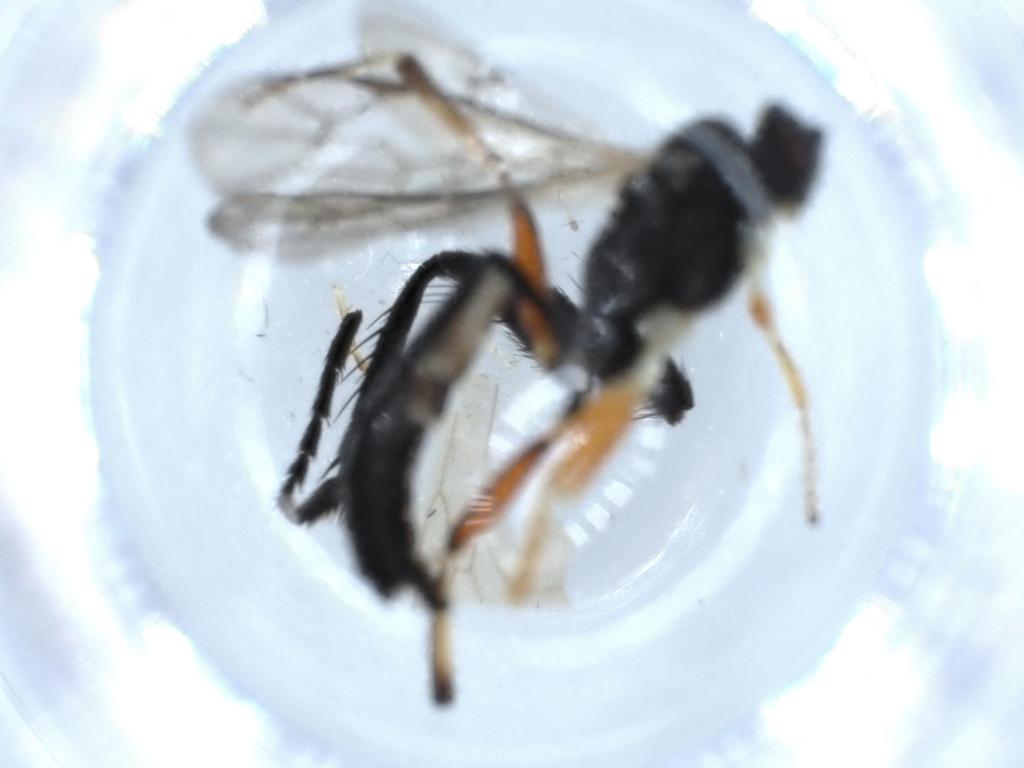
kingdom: Animalia
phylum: Arthropoda
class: Insecta
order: Hymenoptera
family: Ichneumonidae
